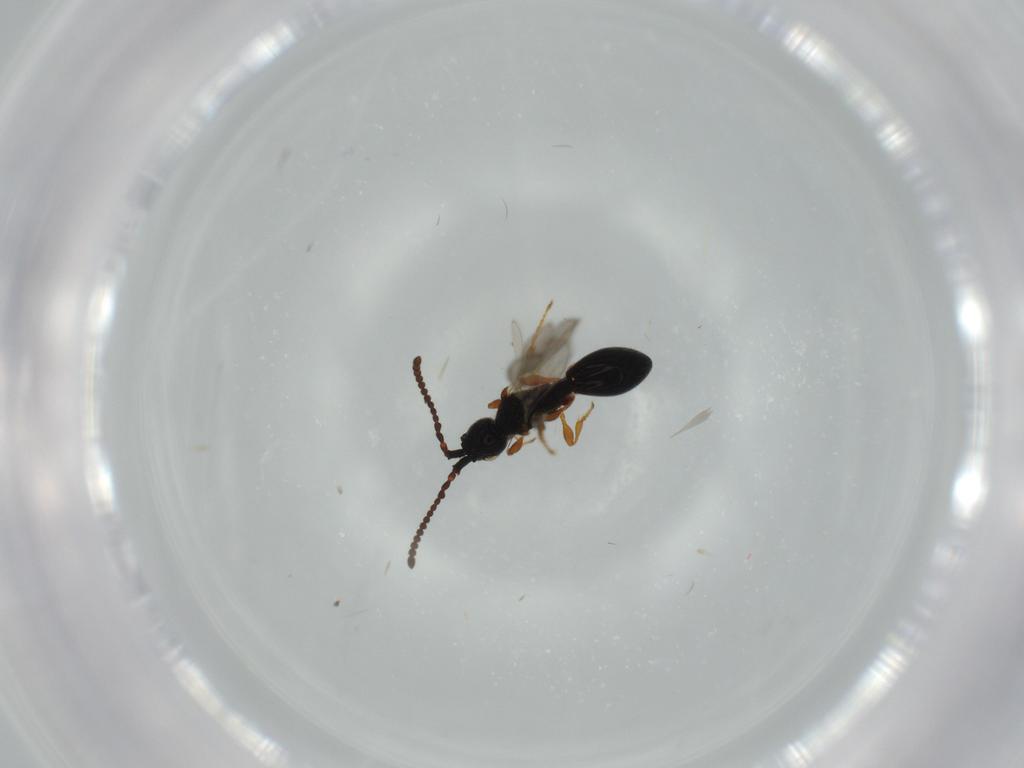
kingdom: Animalia
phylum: Arthropoda
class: Insecta
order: Hymenoptera
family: Diapriidae
